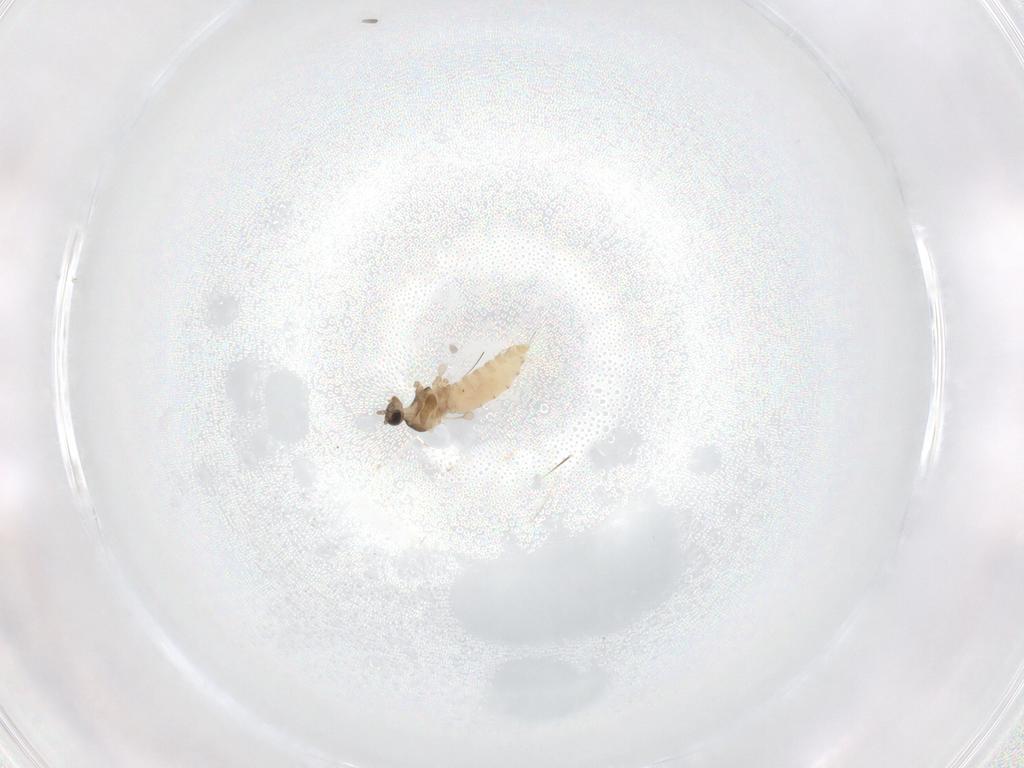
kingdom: Animalia
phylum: Arthropoda
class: Insecta
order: Diptera
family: Cecidomyiidae
